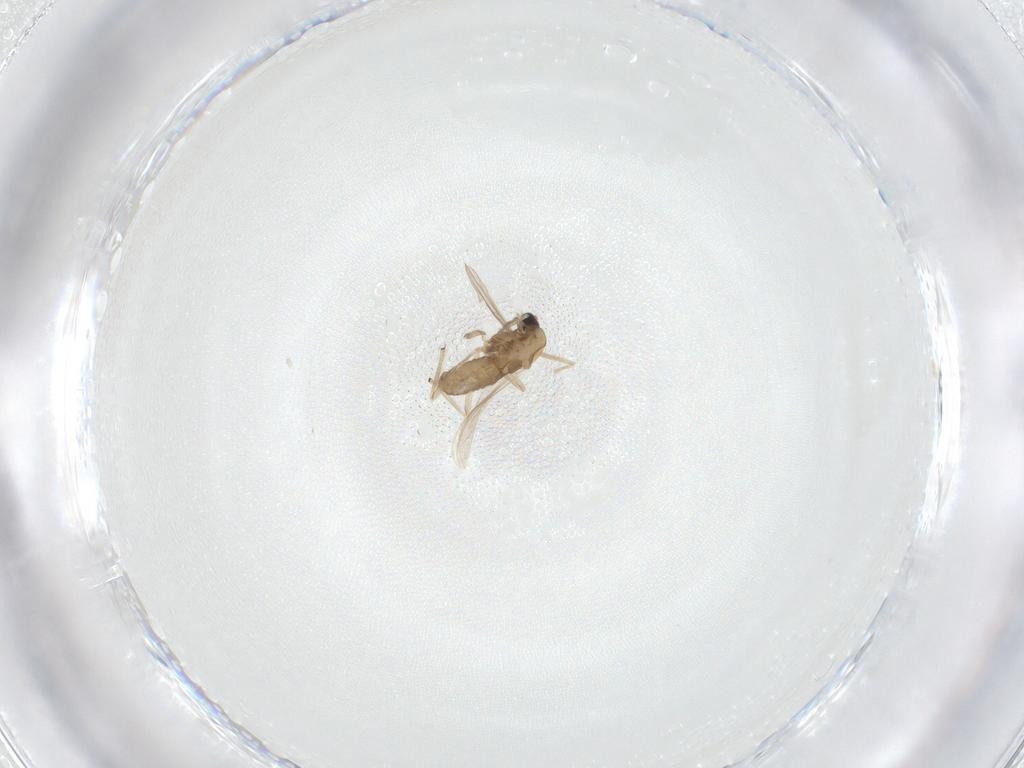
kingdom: Animalia
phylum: Arthropoda
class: Insecta
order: Diptera
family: Chironomidae
